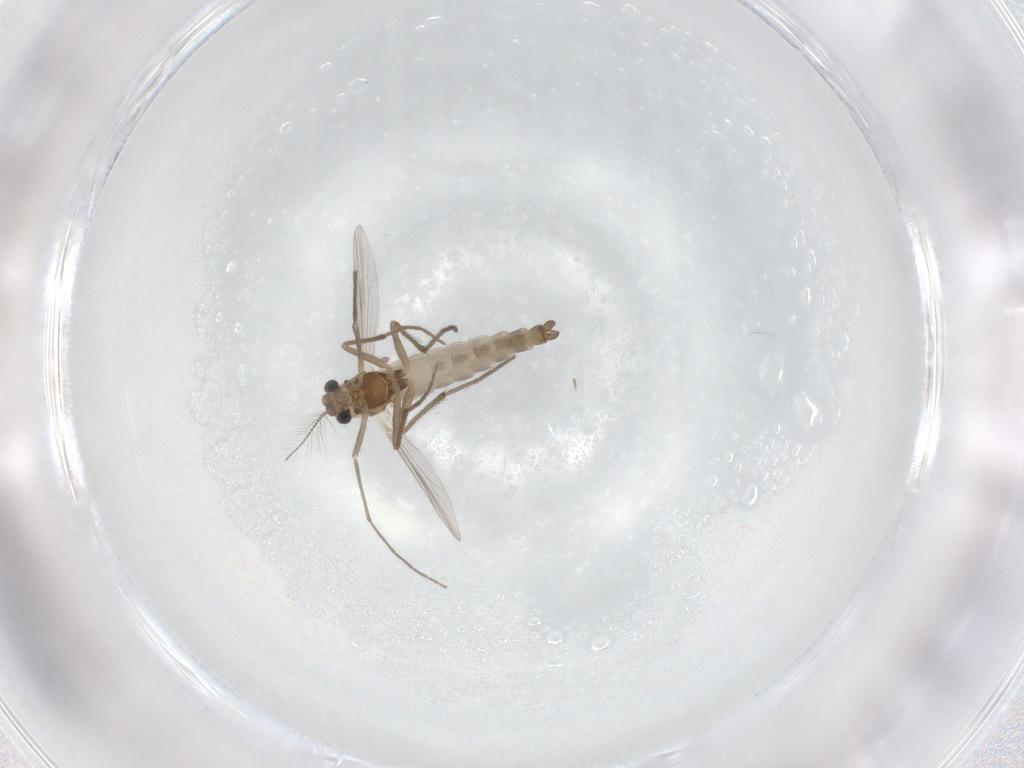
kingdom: Animalia
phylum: Arthropoda
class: Insecta
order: Diptera
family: Chironomidae
